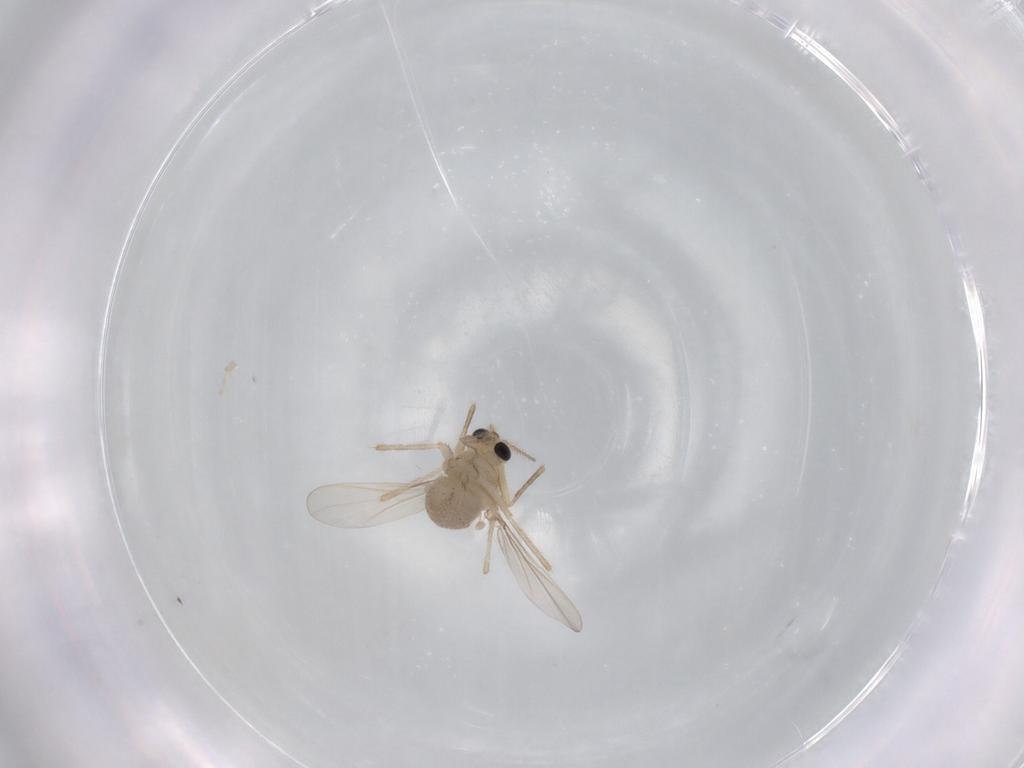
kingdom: Animalia
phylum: Arthropoda
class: Insecta
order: Diptera
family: Chironomidae
